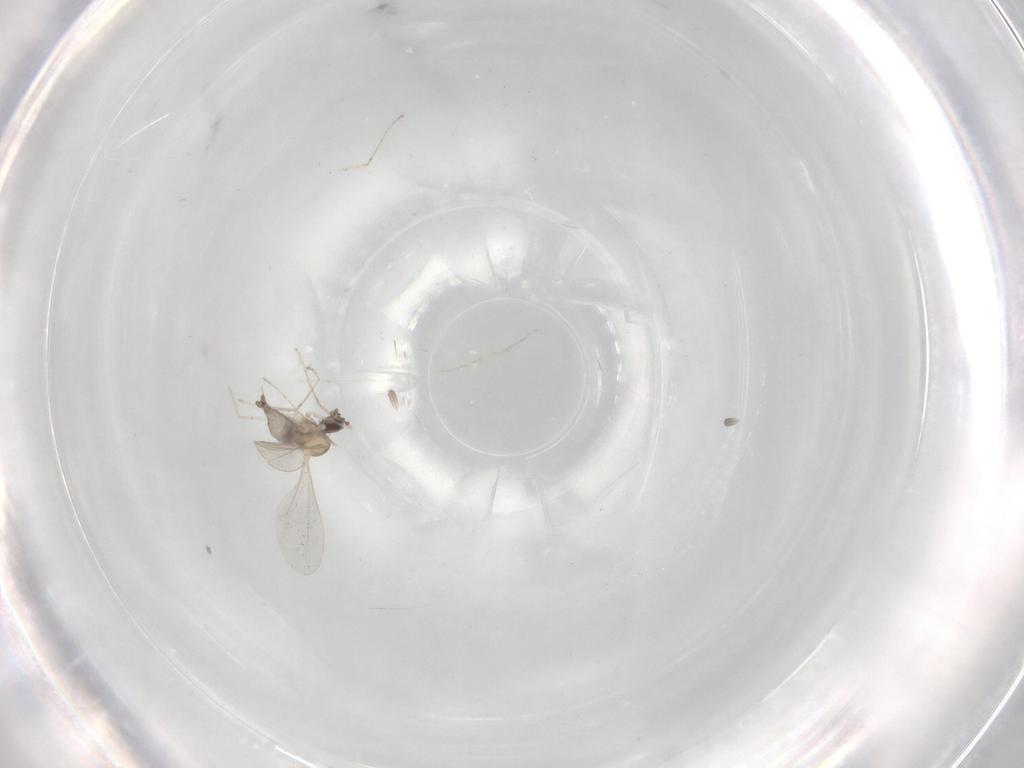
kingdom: Animalia
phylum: Arthropoda
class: Insecta
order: Diptera
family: Cecidomyiidae
